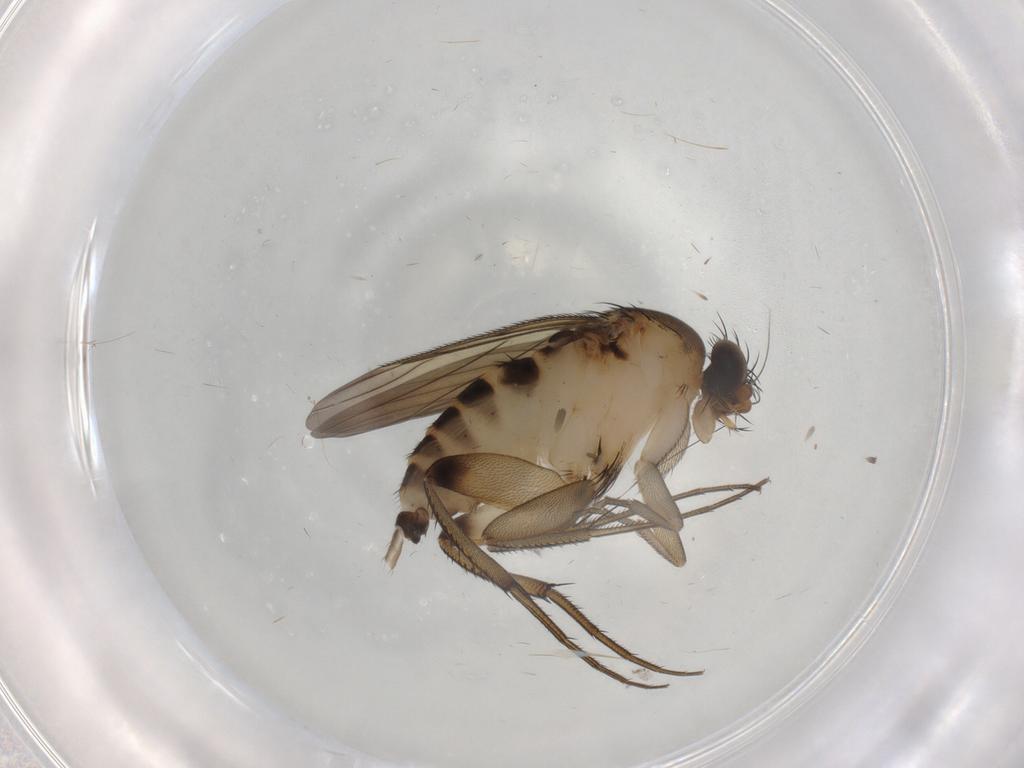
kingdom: Animalia
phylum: Arthropoda
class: Insecta
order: Diptera
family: Phoridae
